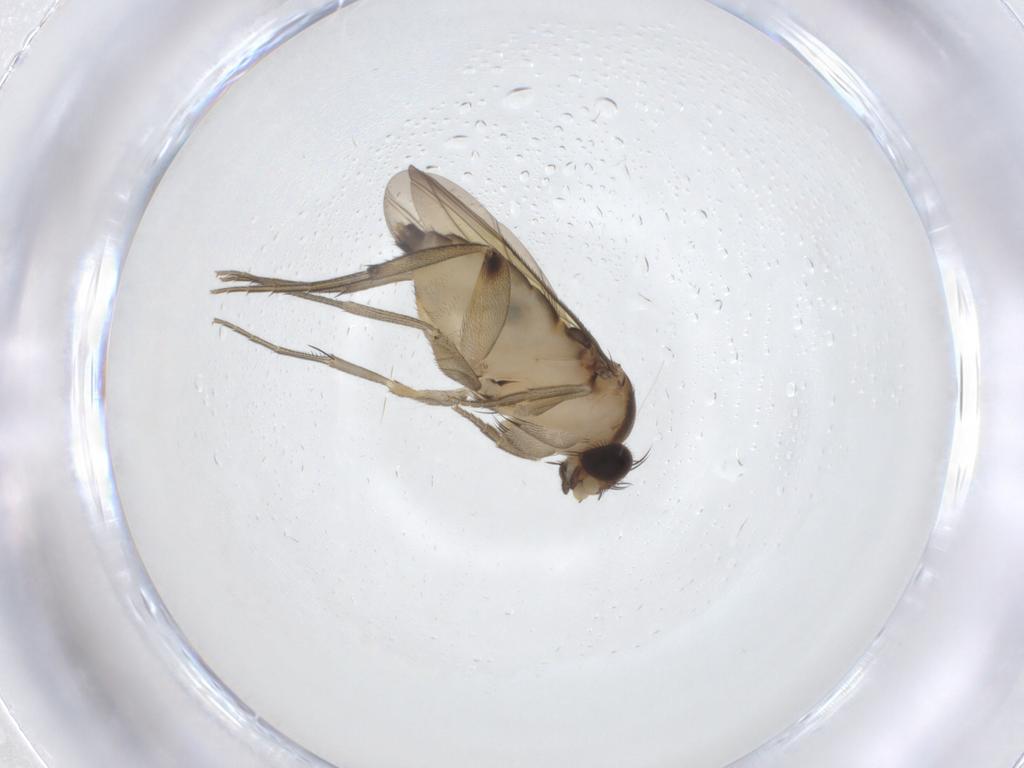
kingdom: Animalia
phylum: Arthropoda
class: Insecta
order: Diptera
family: Phoridae
